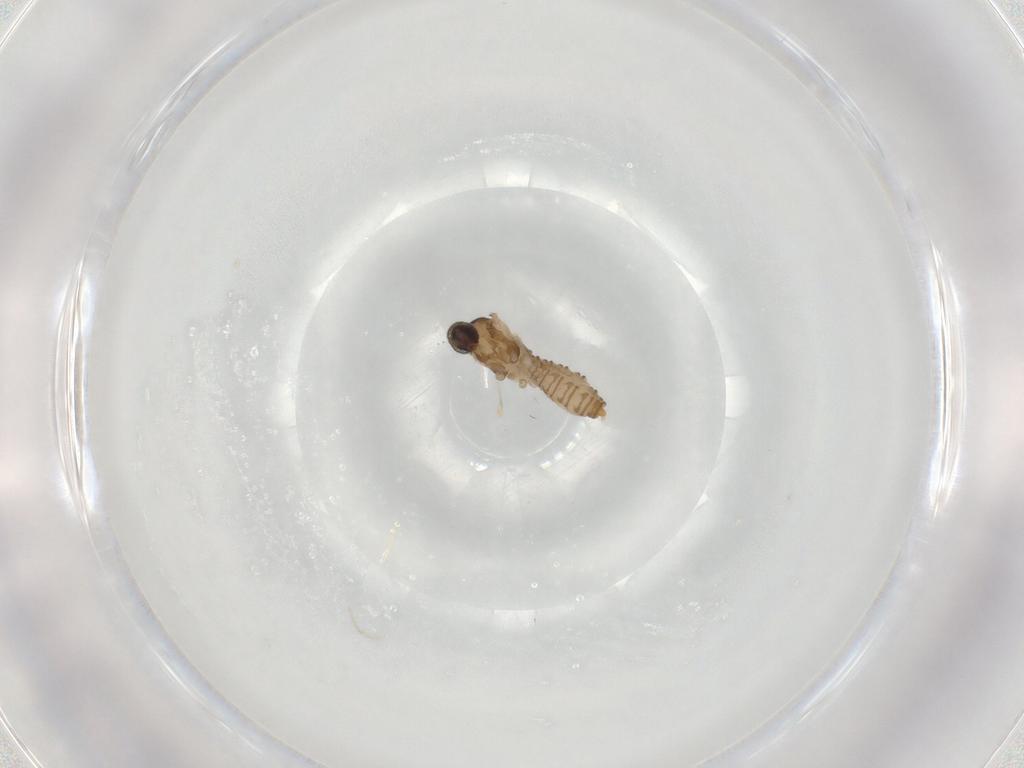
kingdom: Animalia
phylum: Arthropoda
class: Insecta
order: Diptera
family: Cecidomyiidae
